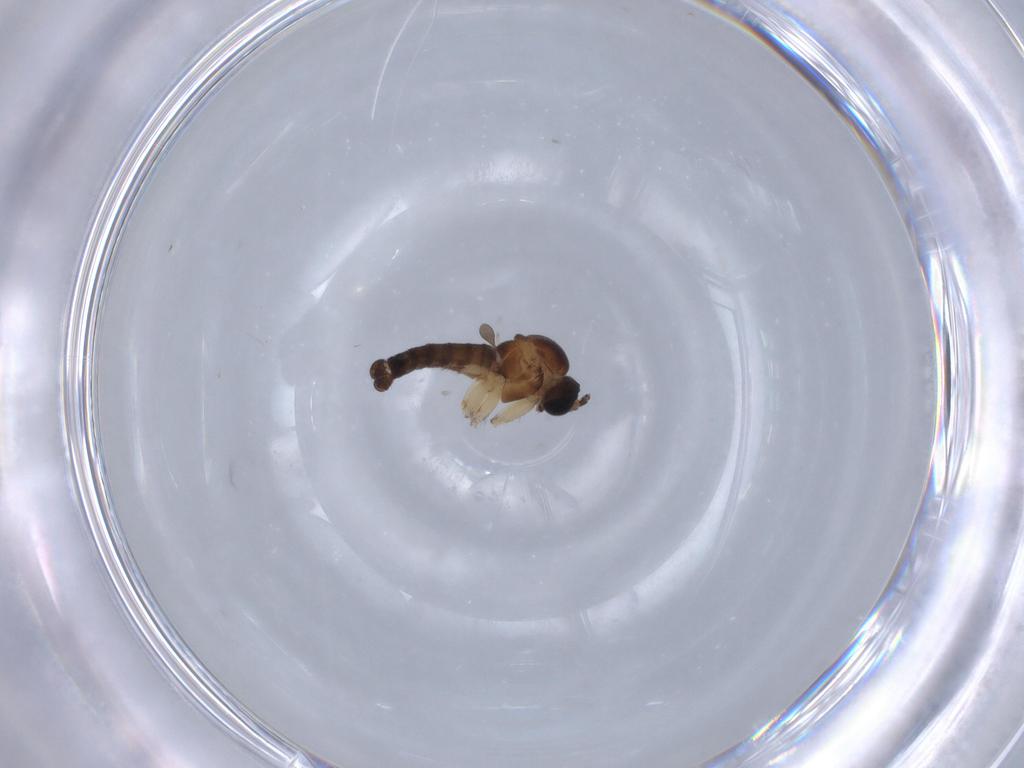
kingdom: Animalia
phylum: Arthropoda
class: Insecta
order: Diptera
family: Sciaridae
